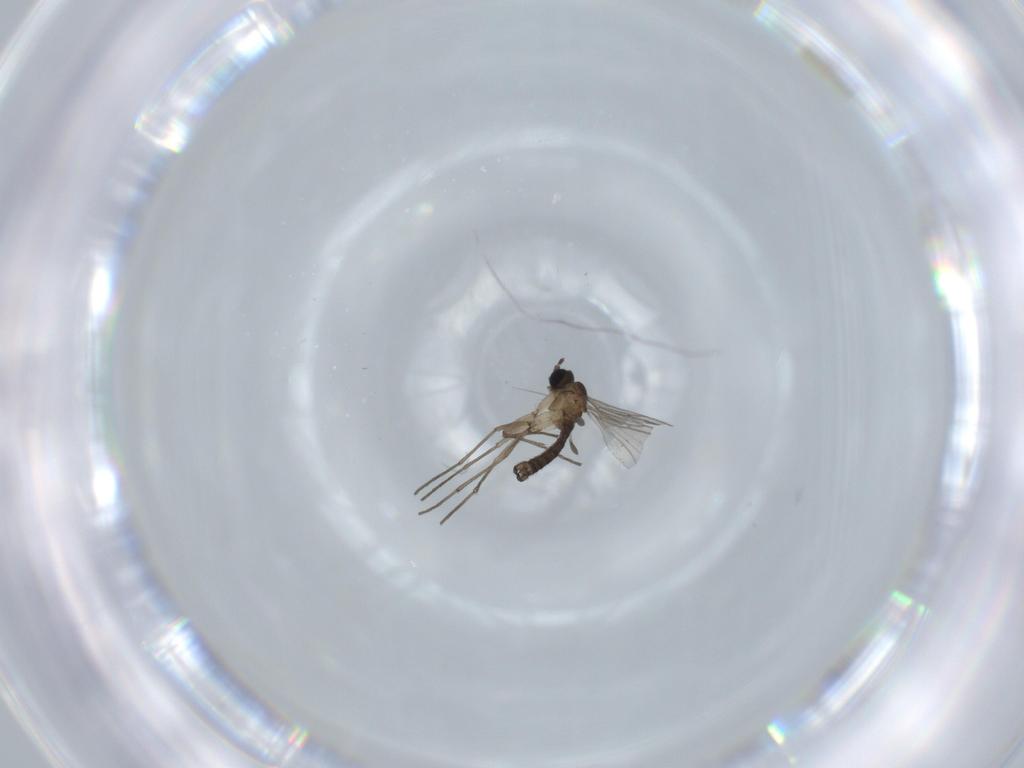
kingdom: Animalia
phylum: Arthropoda
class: Insecta
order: Diptera
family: Sciaridae
